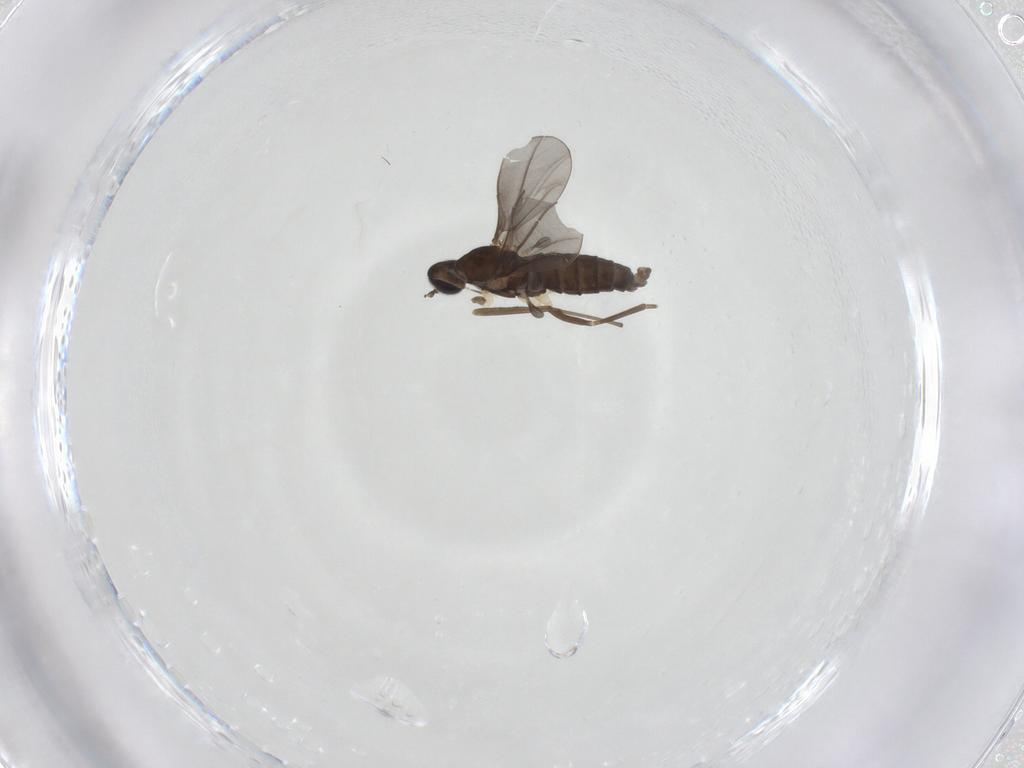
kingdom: Animalia
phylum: Arthropoda
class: Insecta
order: Diptera
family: Cecidomyiidae
